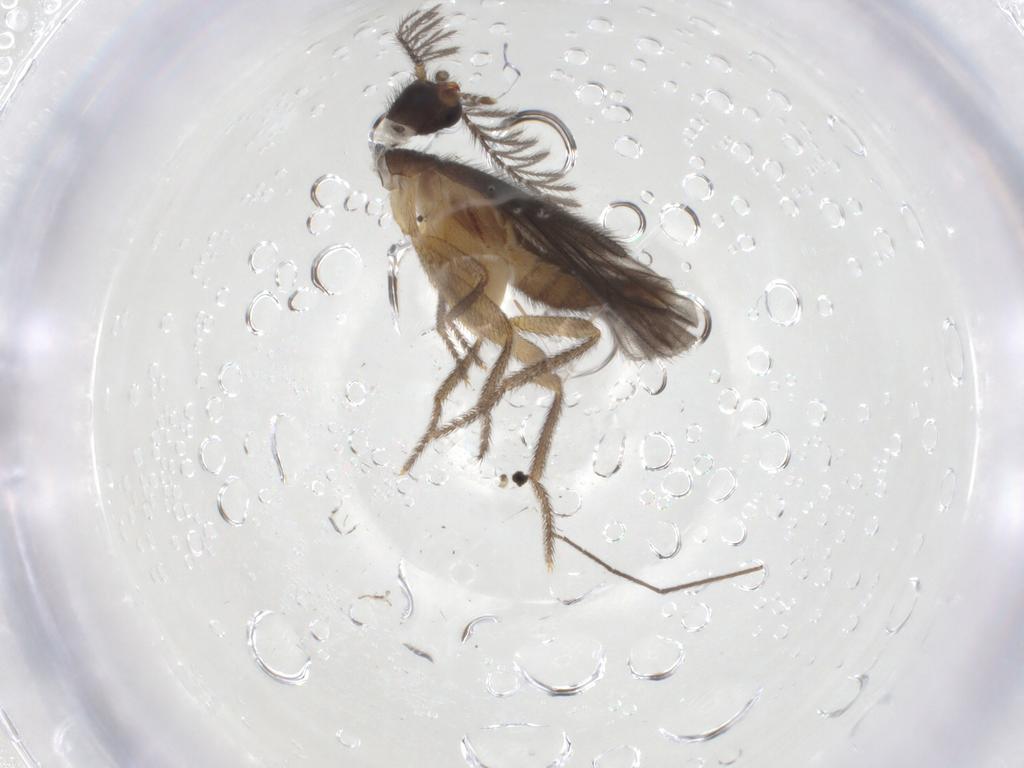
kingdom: Animalia
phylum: Arthropoda
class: Insecta
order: Coleoptera
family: Phengodidae
